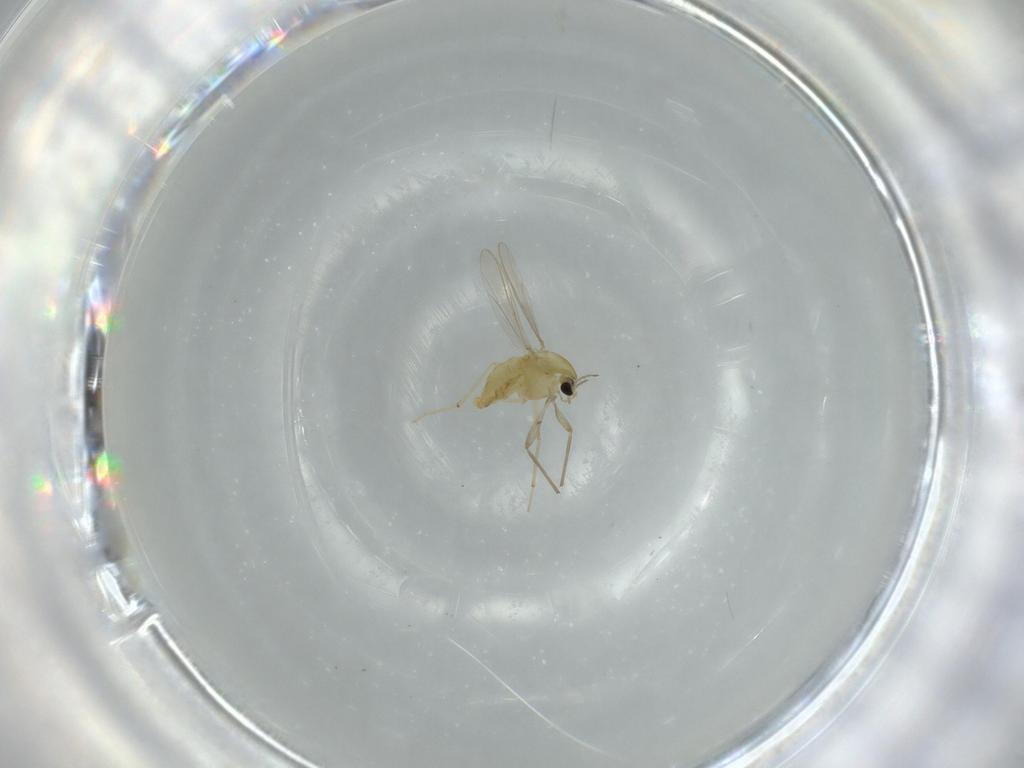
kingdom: Animalia
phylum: Arthropoda
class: Insecta
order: Diptera
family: Chironomidae
